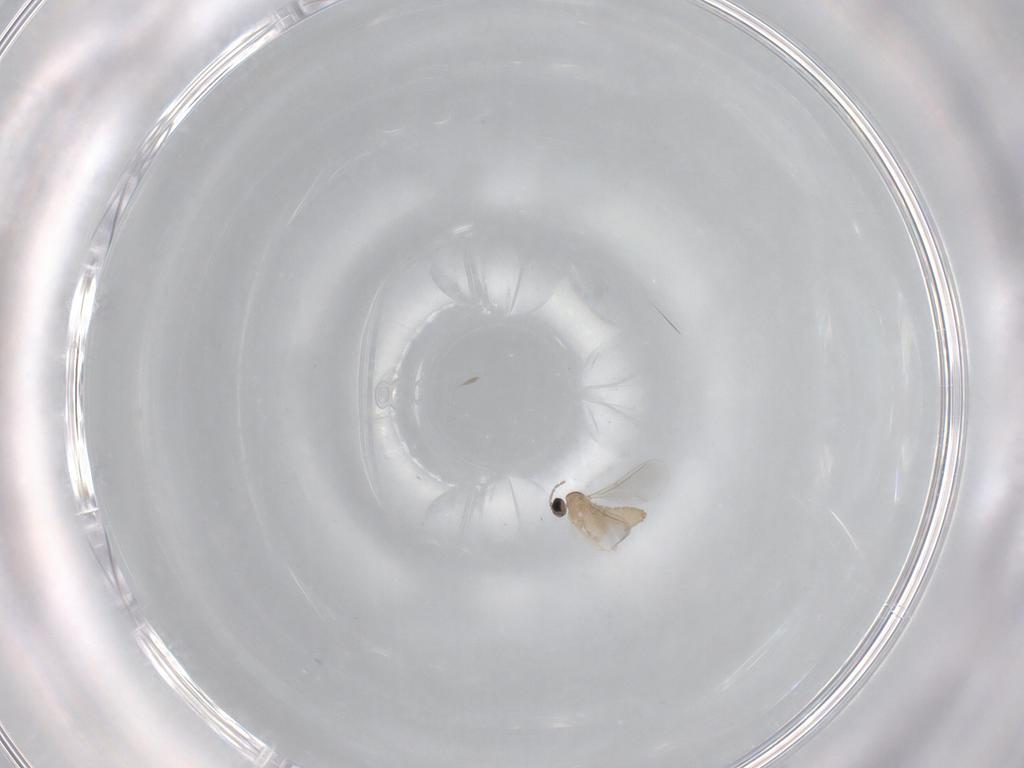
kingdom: Animalia
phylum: Arthropoda
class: Insecta
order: Diptera
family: Cecidomyiidae
